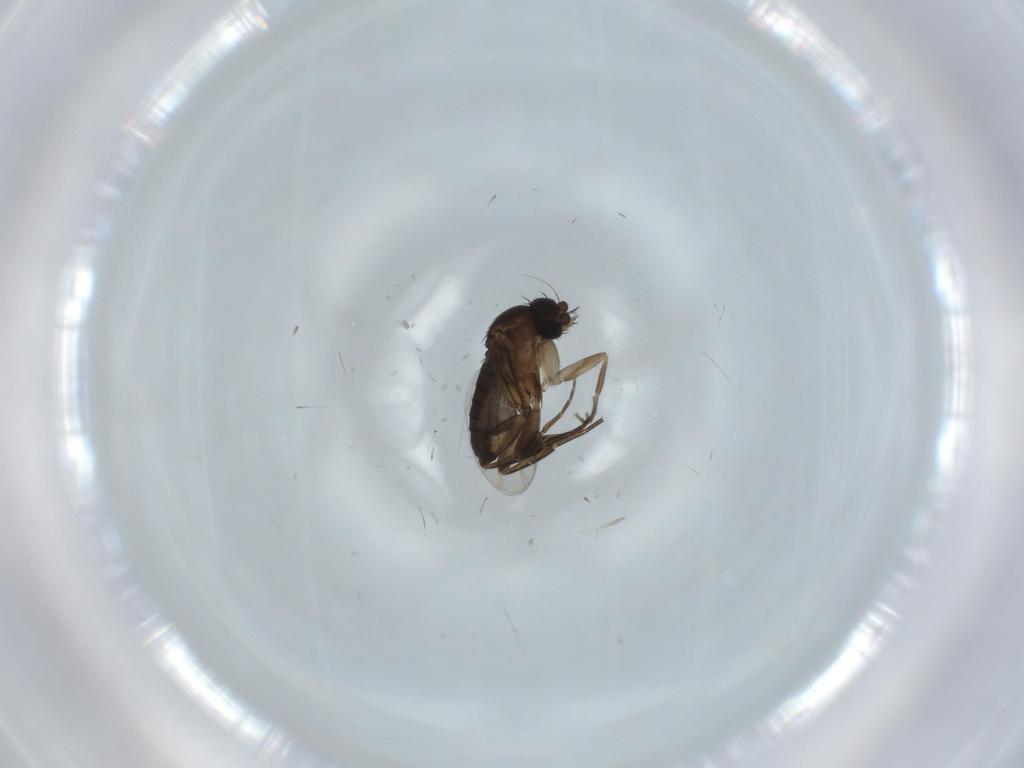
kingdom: Animalia
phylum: Arthropoda
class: Insecta
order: Diptera
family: Phoridae
